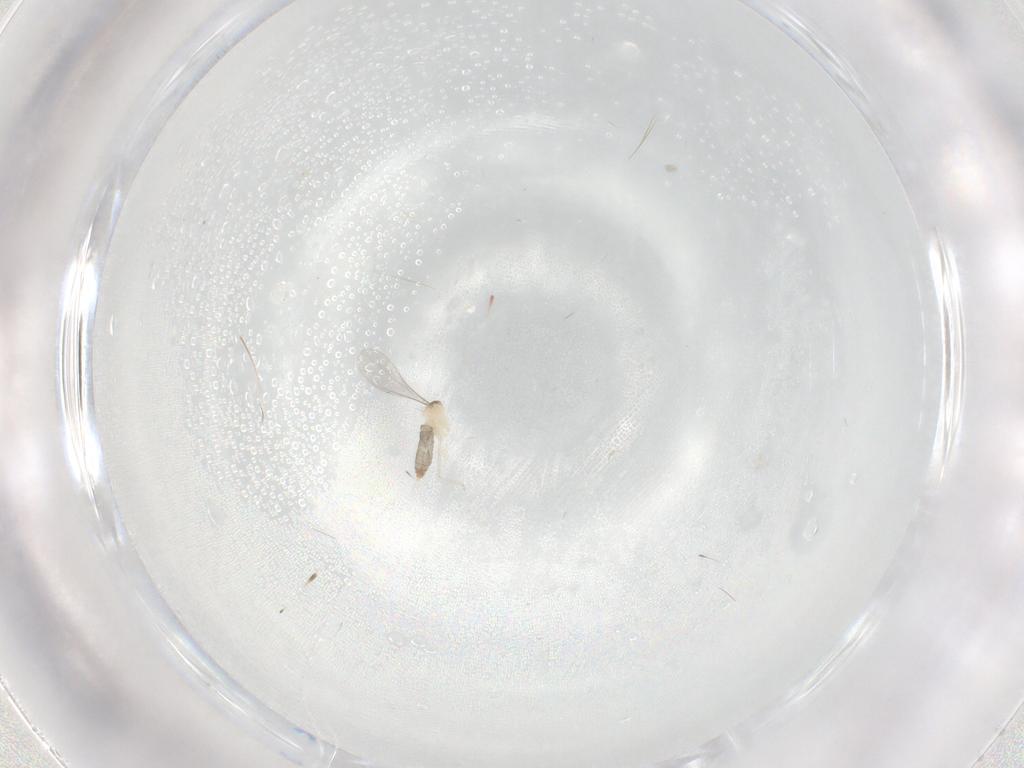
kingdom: Animalia
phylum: Arthropoda
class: Insecta
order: Diptera
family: Cecidomyiidae
